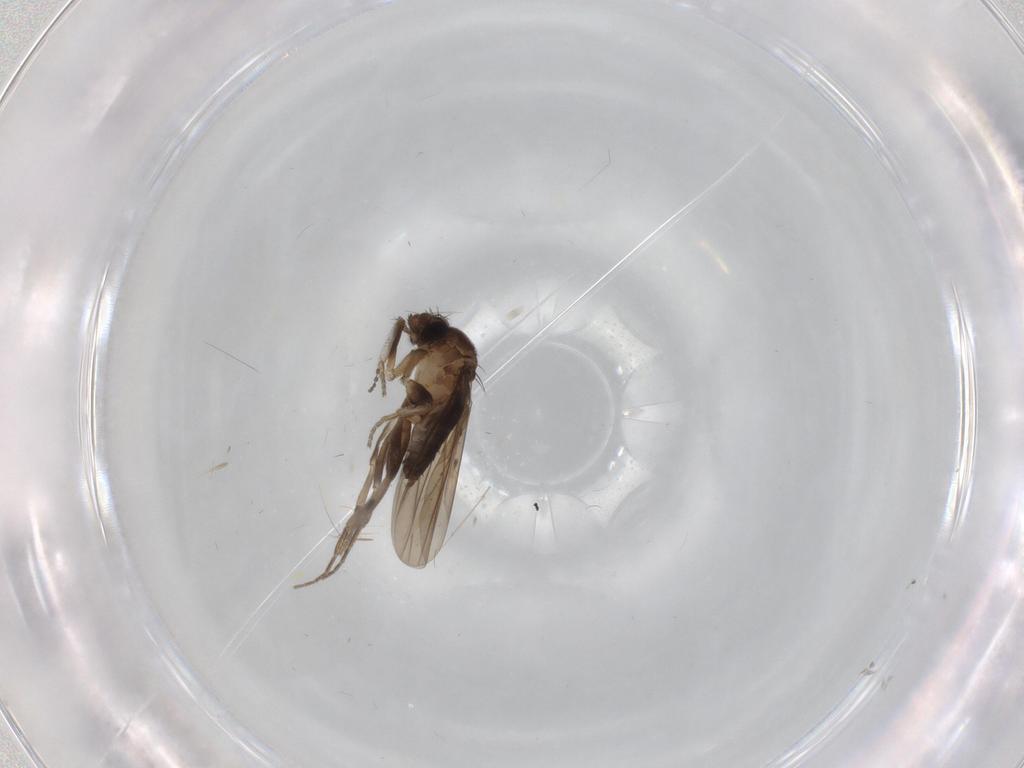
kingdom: Animalia
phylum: Arthropoda
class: Insecta
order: Diptera
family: Cecidomyiidae
